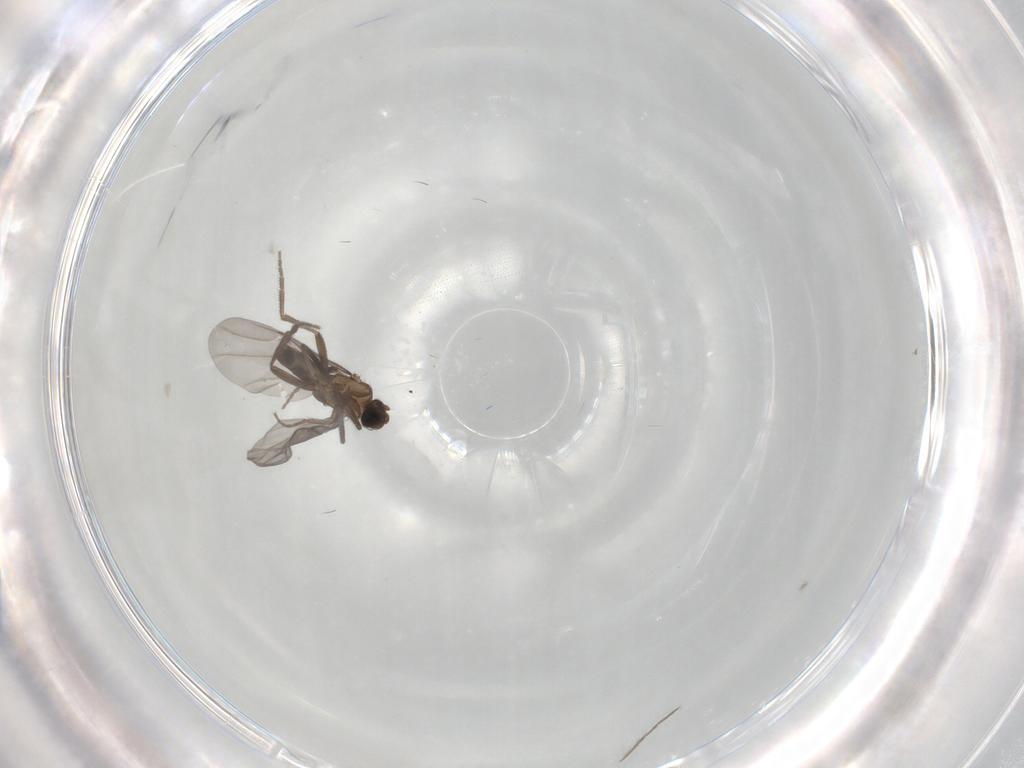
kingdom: Animalia
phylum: Arthropoda
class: Insecta
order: Diptera
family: Phoridae
